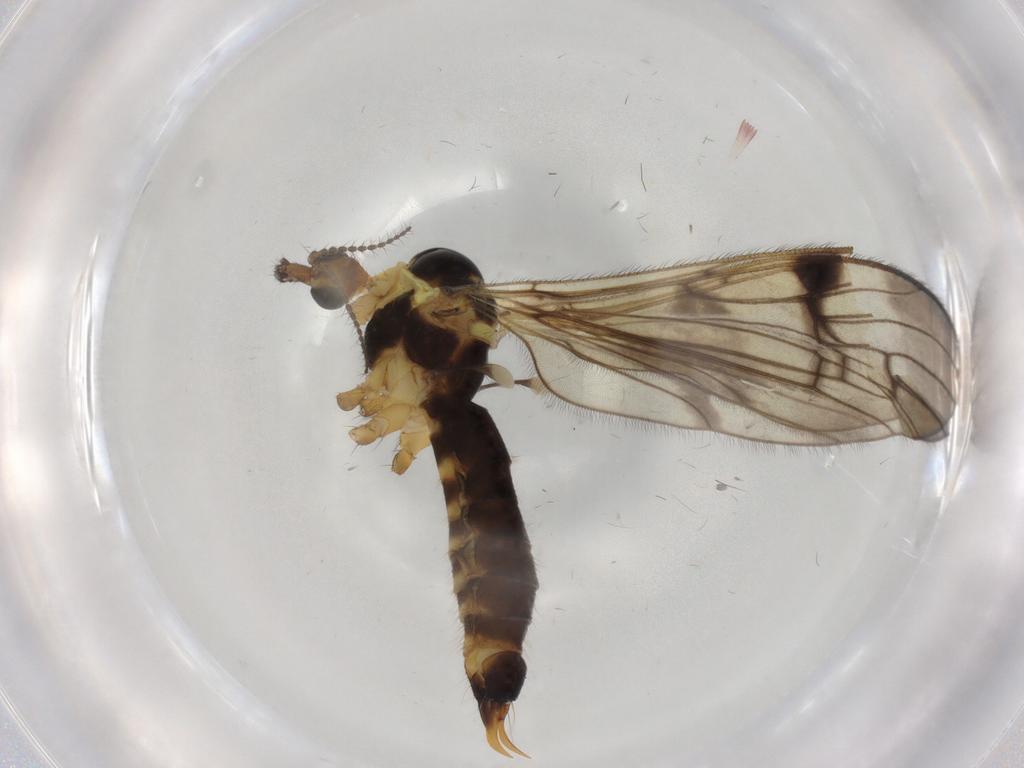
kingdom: Animalia
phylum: Arthropoda
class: Insecta
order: Diptera
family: Limoniidae
